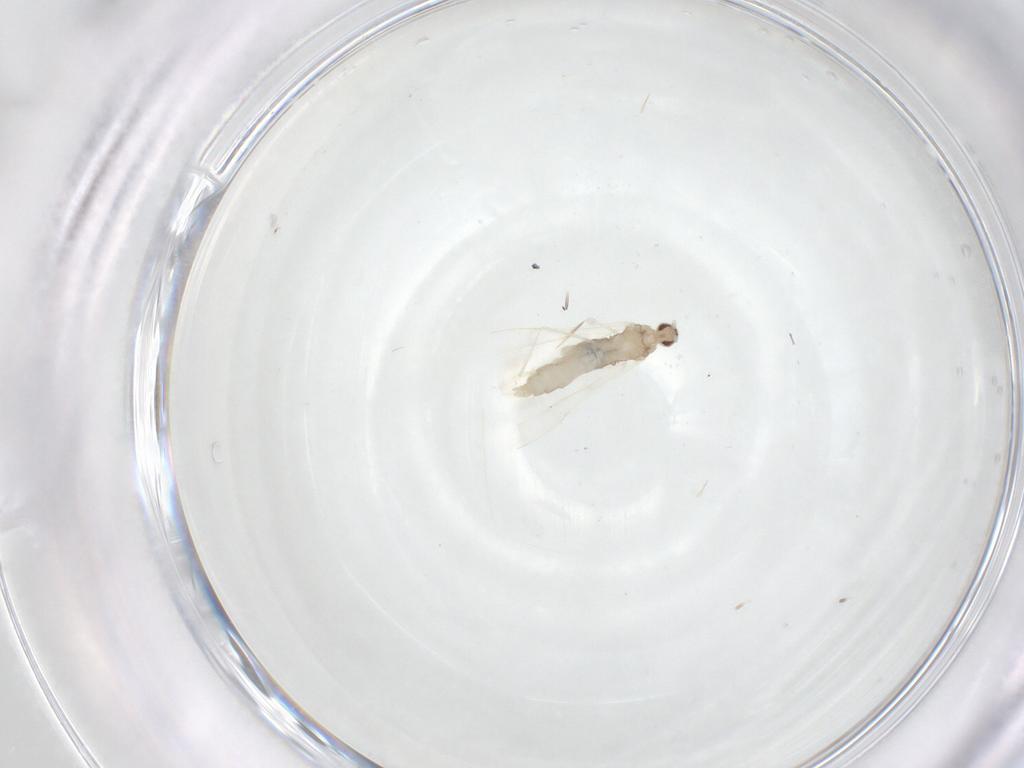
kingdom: Animalia
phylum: Arthropoda
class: Insecta
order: Diptera
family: Cecidomyiidae
